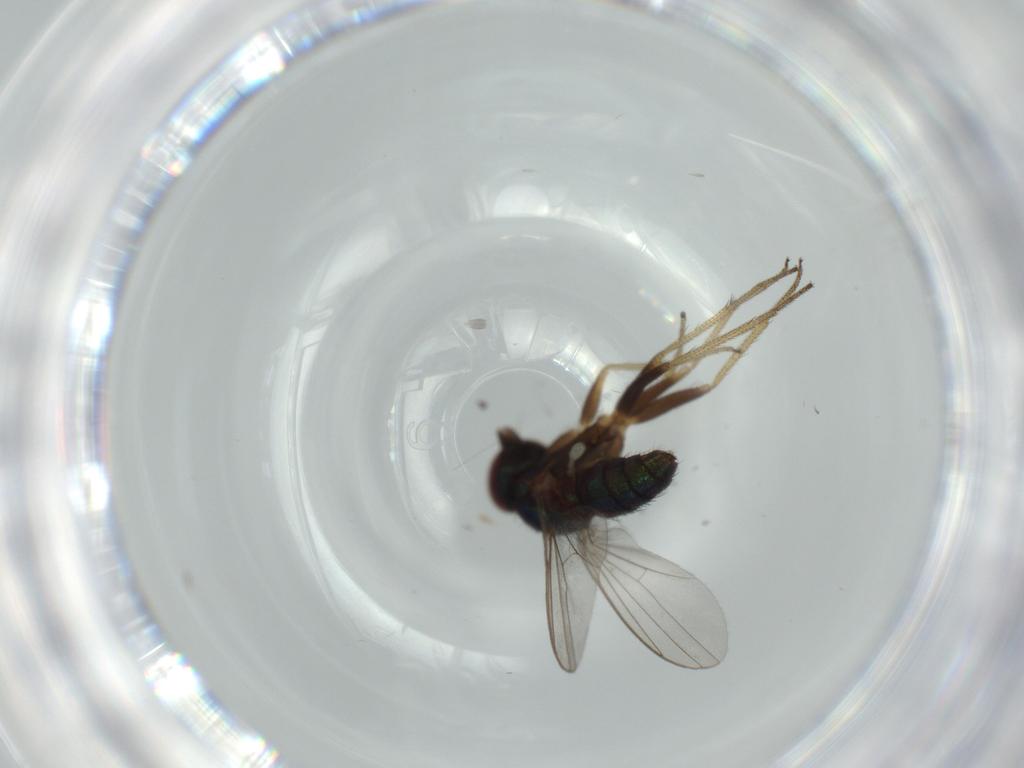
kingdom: Animalia
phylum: Arthropoda
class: Insecta
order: Diptera
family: Dolichopodidae
